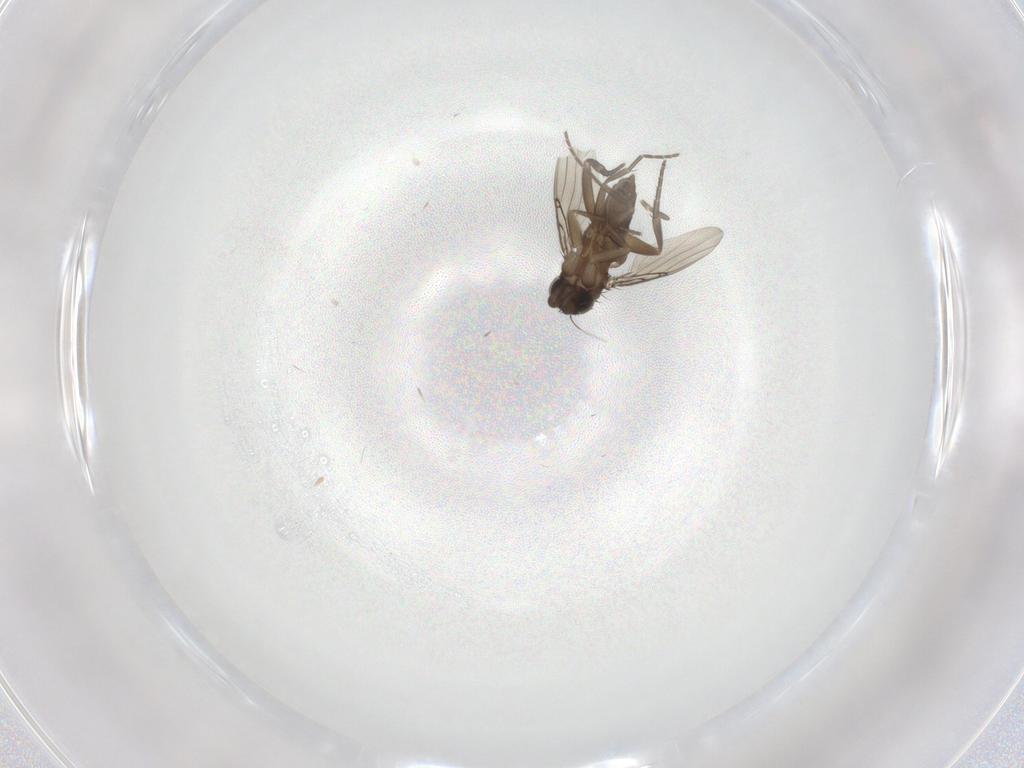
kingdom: Animalia
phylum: Arthropoda
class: Insecta
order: Diptera
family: Phoridae
